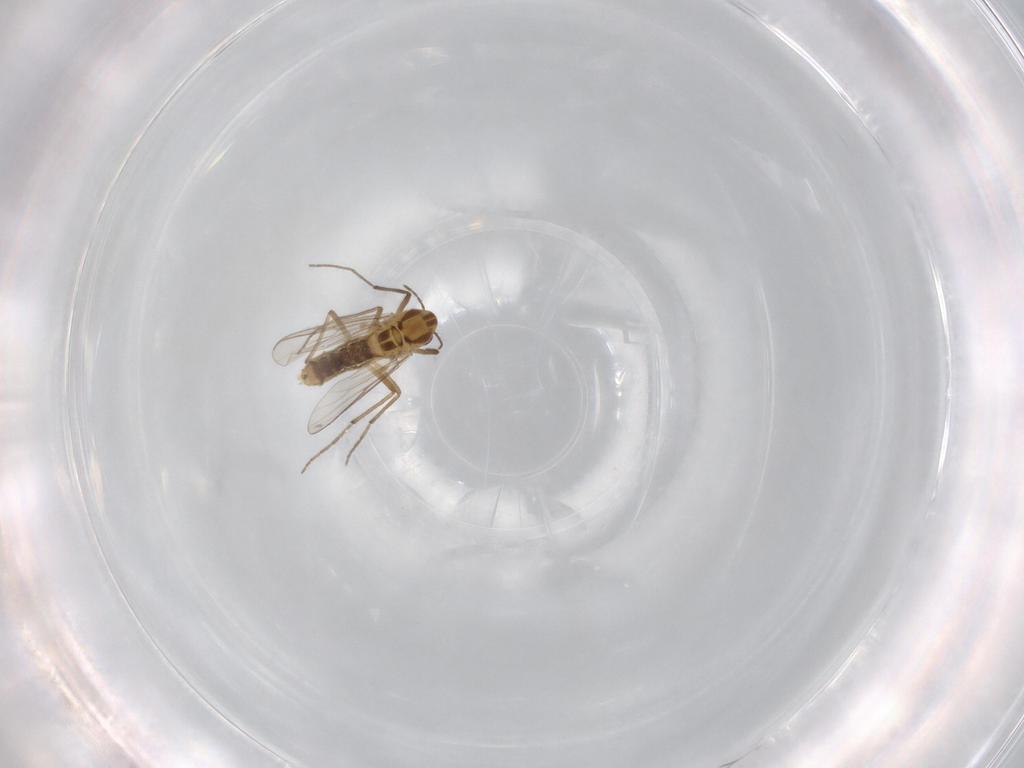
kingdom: Animalia
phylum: Arthropoda
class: Insecta
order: Diptera
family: Chironomidae
